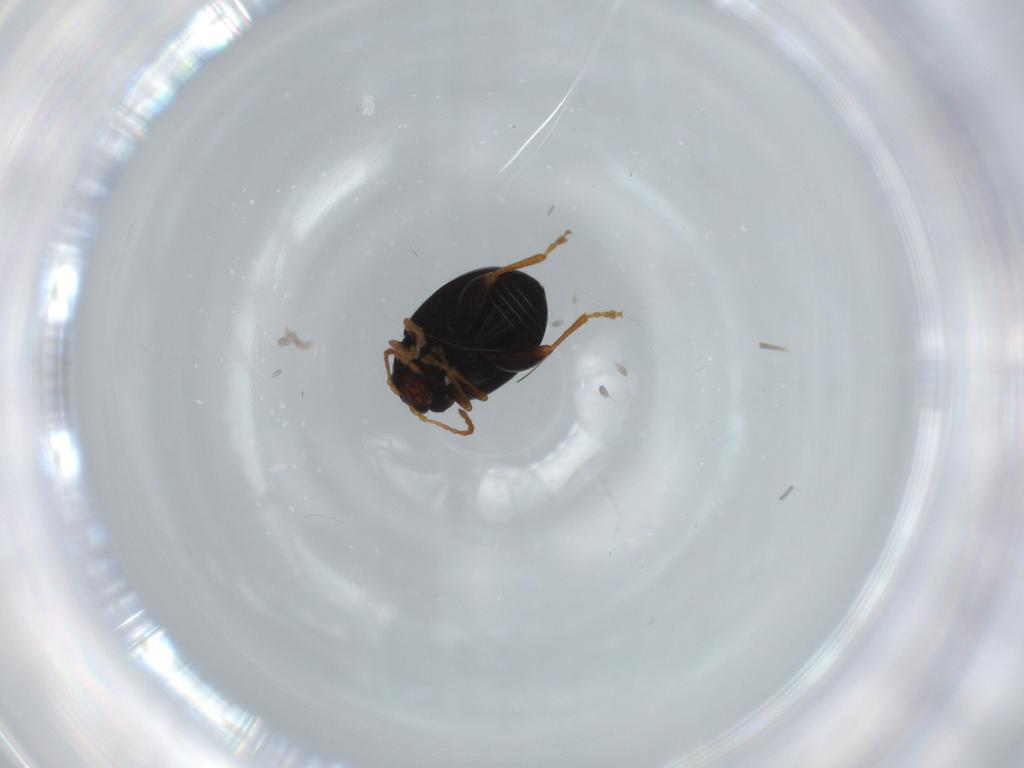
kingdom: Animalia
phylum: Arthropoda
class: Insecta
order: Coleoptera
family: Chrysomelidae
